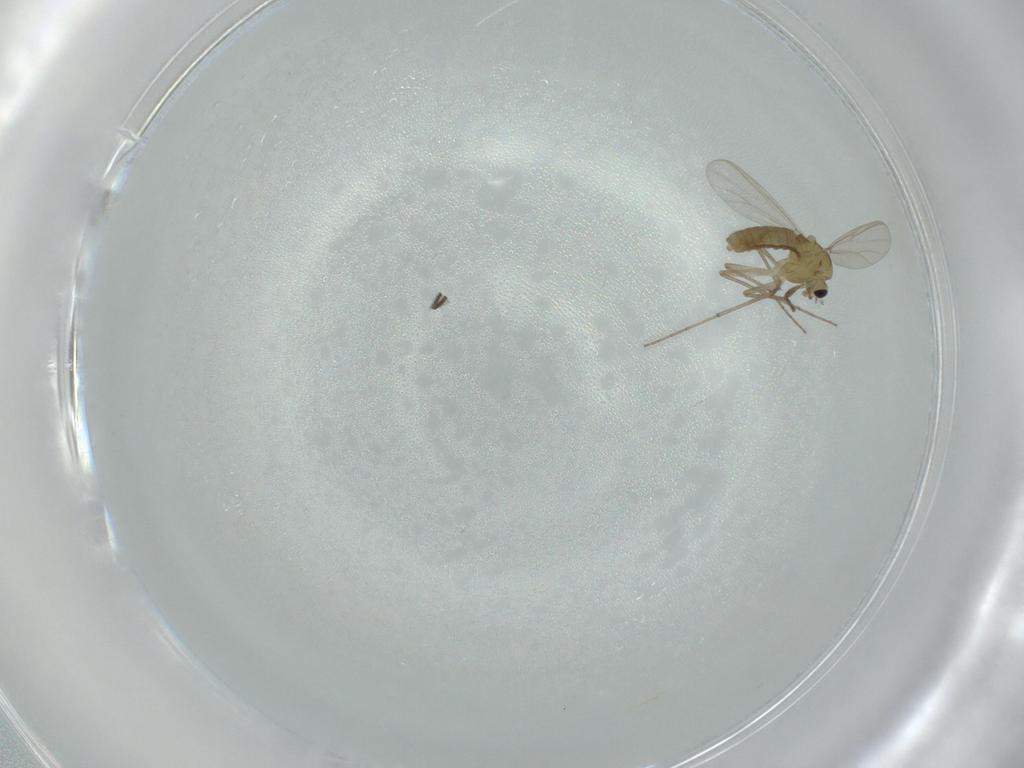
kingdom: Animalia
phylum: Arthropoda
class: Insecta
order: Diptera
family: Chironomidae
